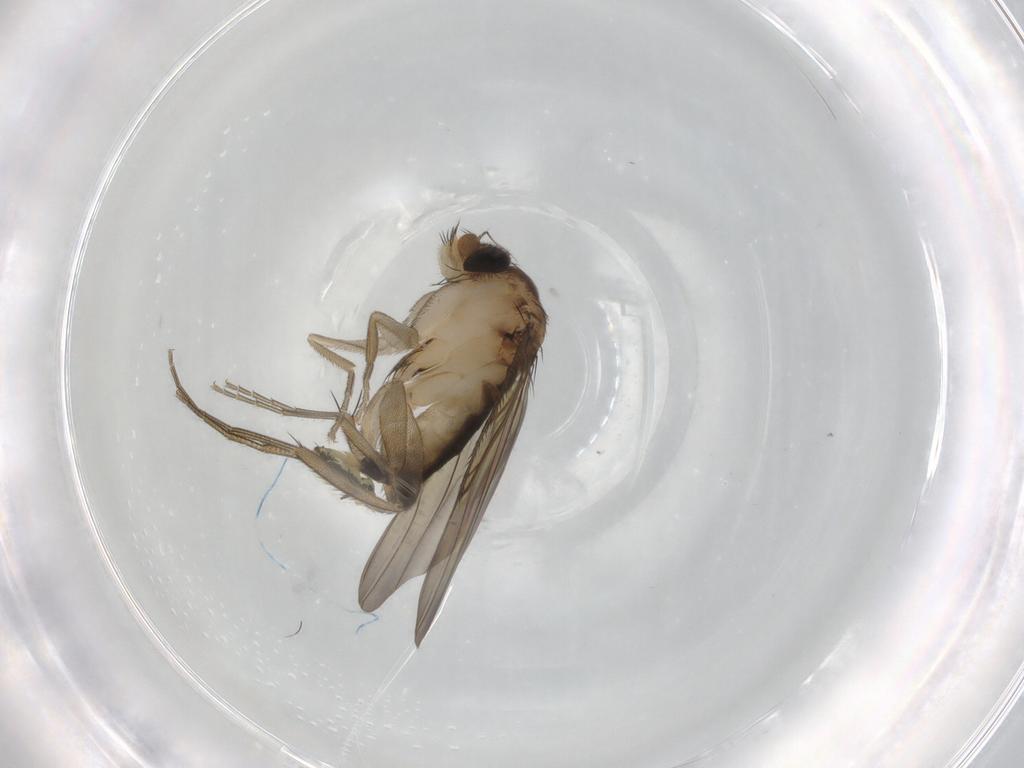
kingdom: Animalia
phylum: Arthropoda
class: Insecta
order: Diptera
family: Phoridae
